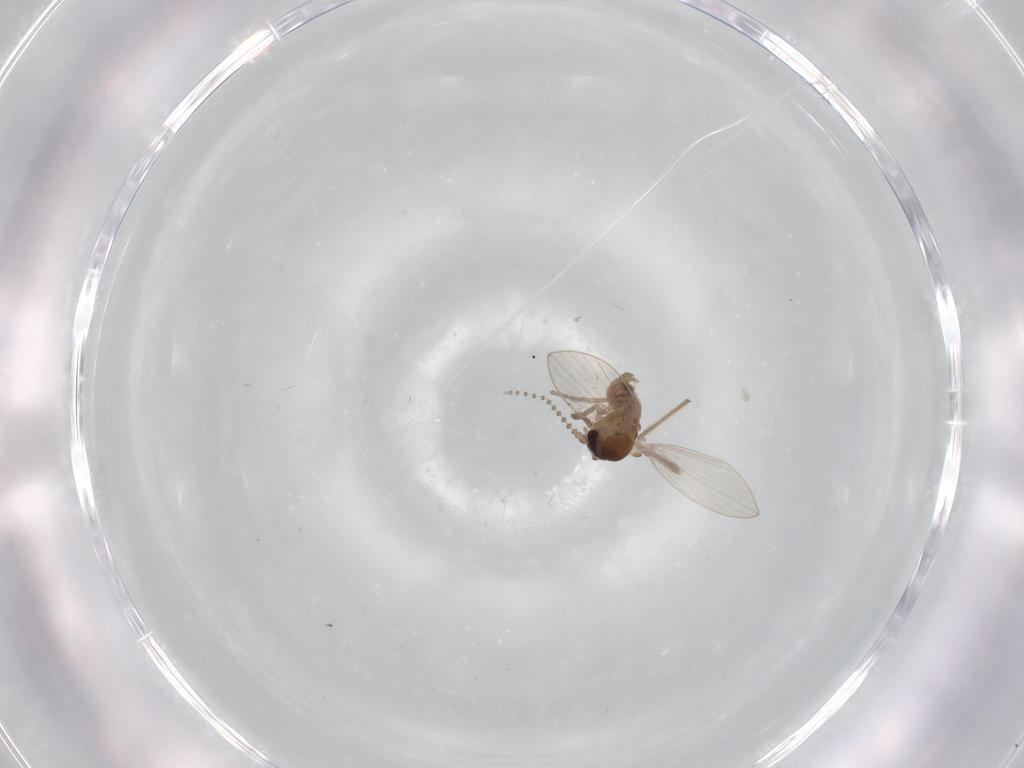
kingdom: Animalia
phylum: Arthropoda
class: Insecta
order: Diptera
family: Psychodidae
